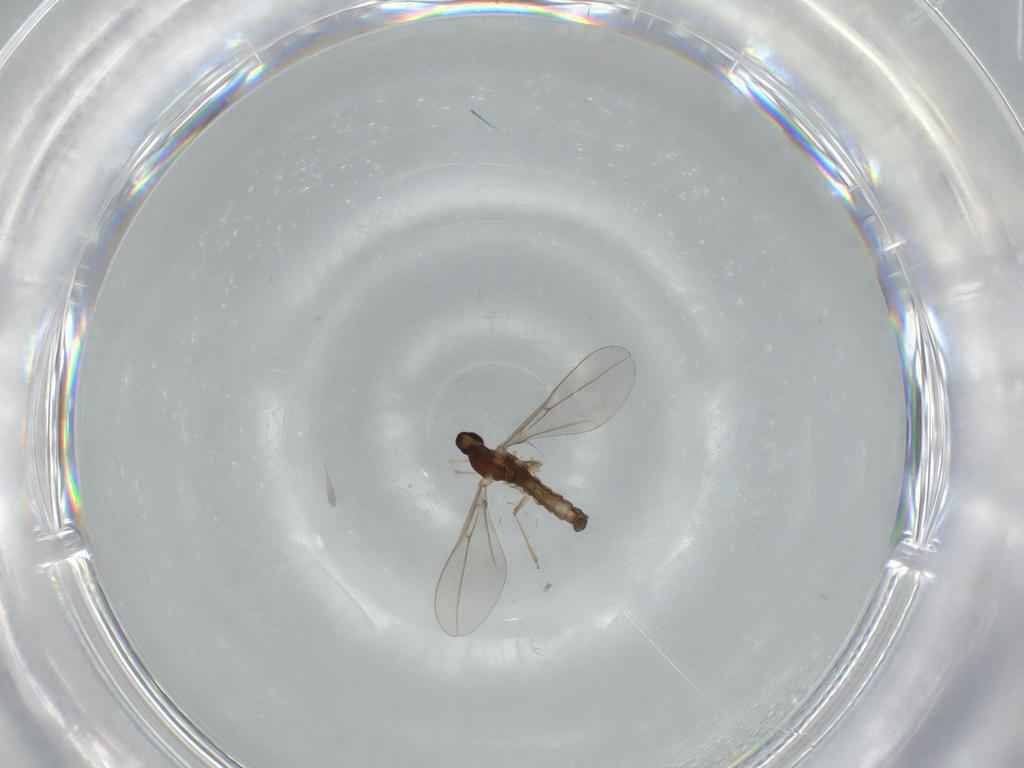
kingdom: Animalia
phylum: Arthropoda
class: Insecta
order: Diptera
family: Cecidomyiidae
